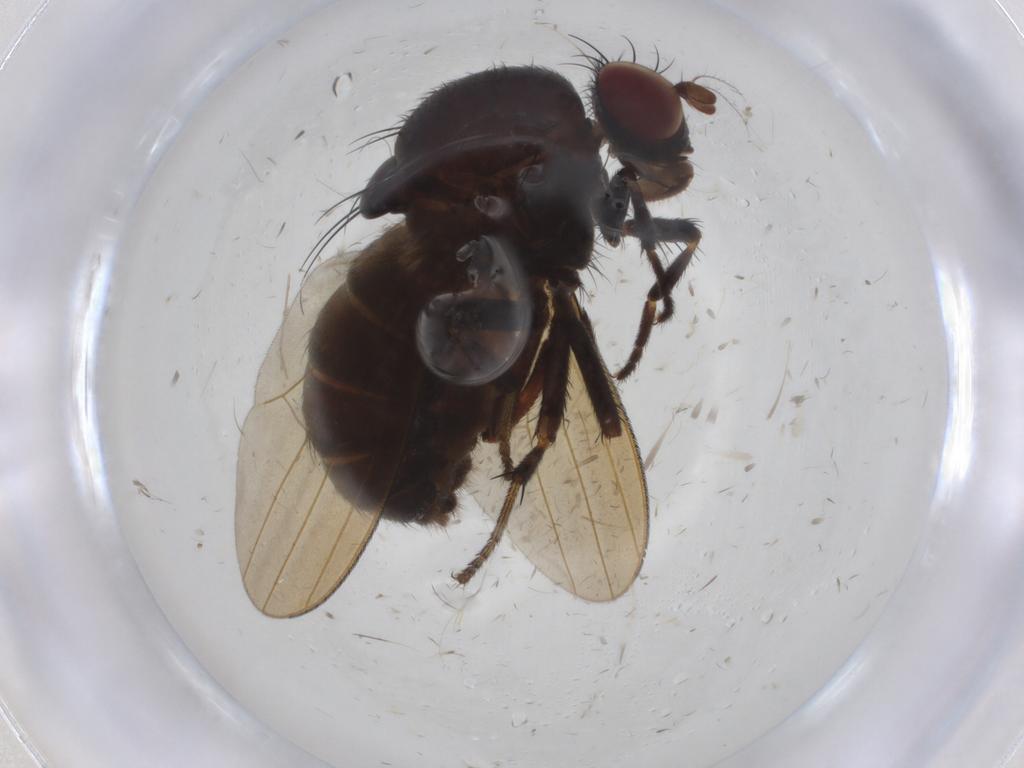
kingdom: Animalia
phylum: Arthropoda
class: Insecta
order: Diptera
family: Lauxaniidae
